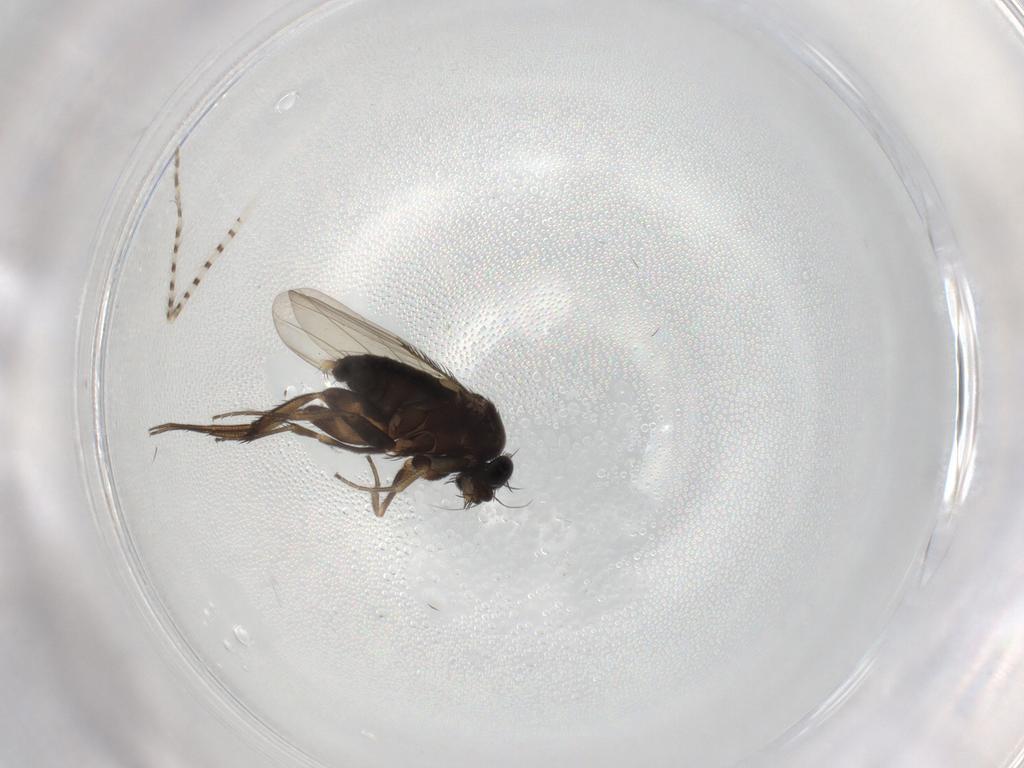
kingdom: Animalia
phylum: Arthropoda
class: Insecta
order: Diptera
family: Phoridae
